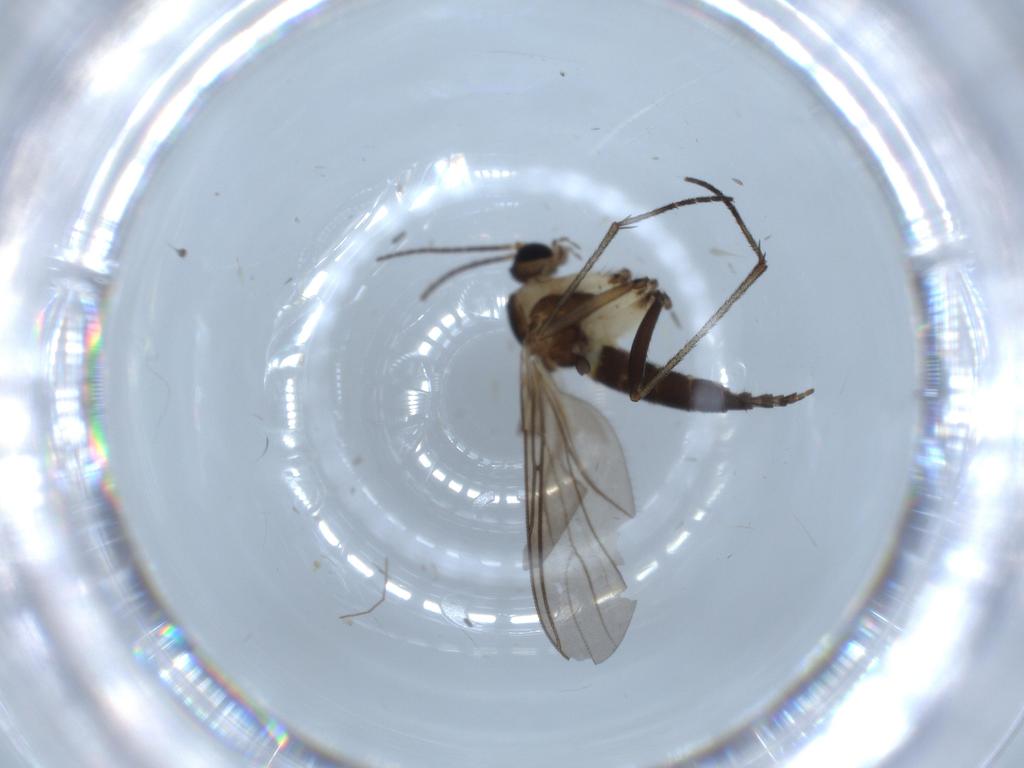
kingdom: Animalia
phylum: Arthropoda
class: Insecta
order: Diptera
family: Sciaridae
